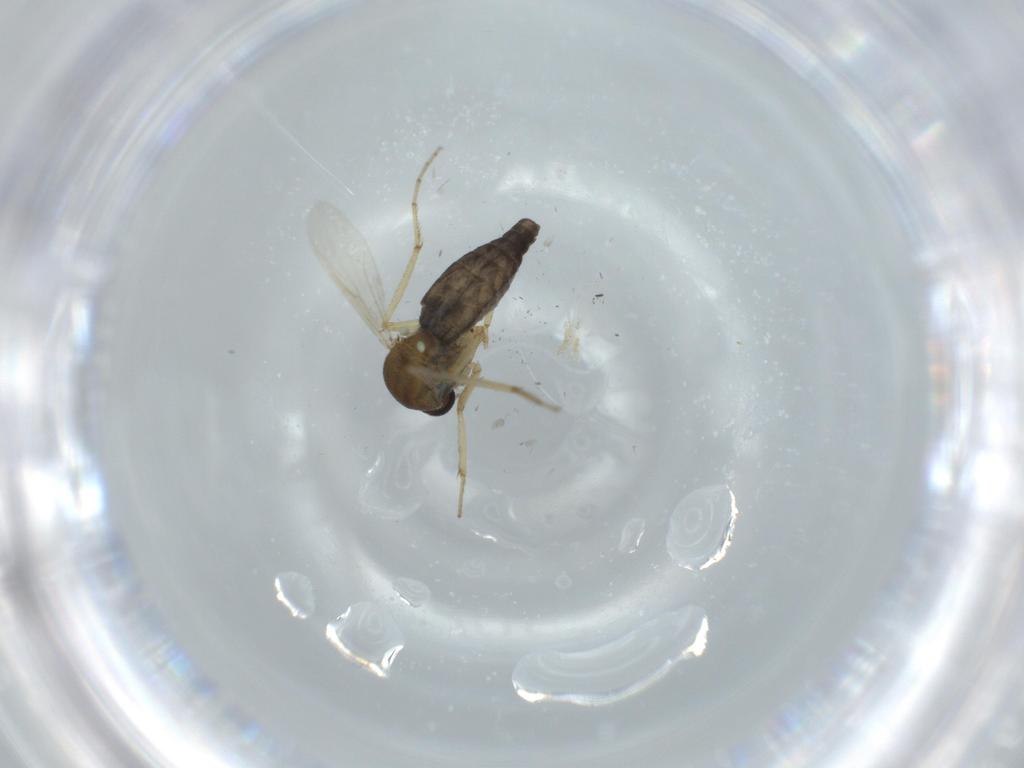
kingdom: Animalia
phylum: Arthropoda
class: Insecta
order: Diptera
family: Ceratopogonidae
